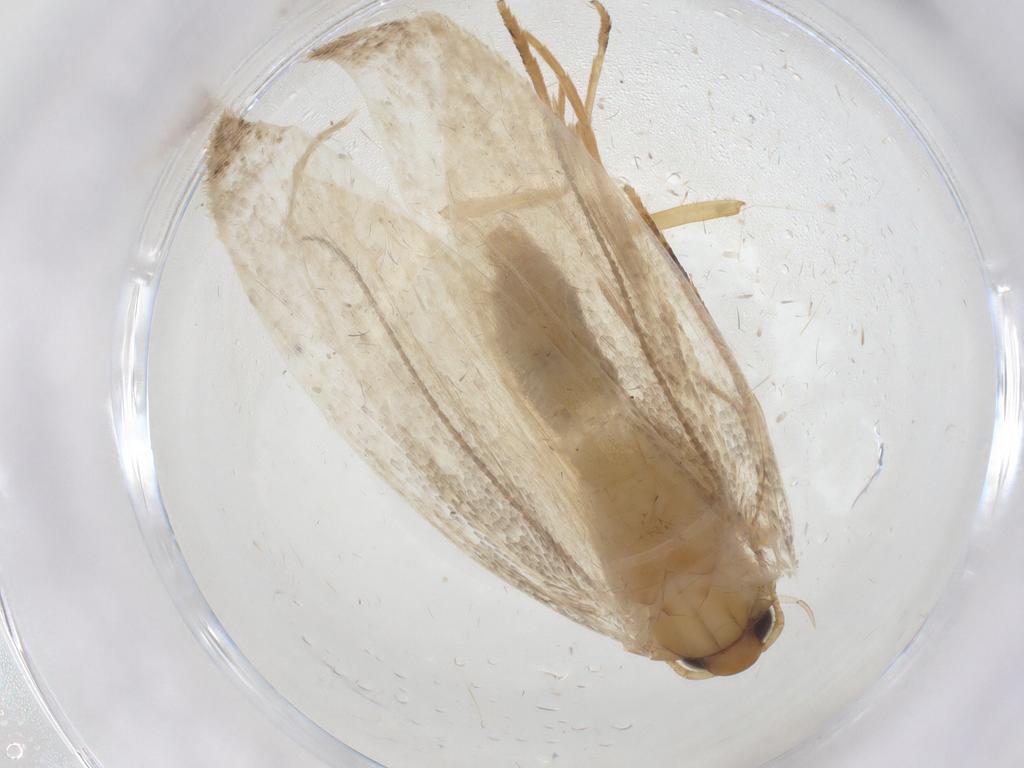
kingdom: Animalia
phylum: Arthropoda
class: Insecta
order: Lepidoptera
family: Oecophoridae
